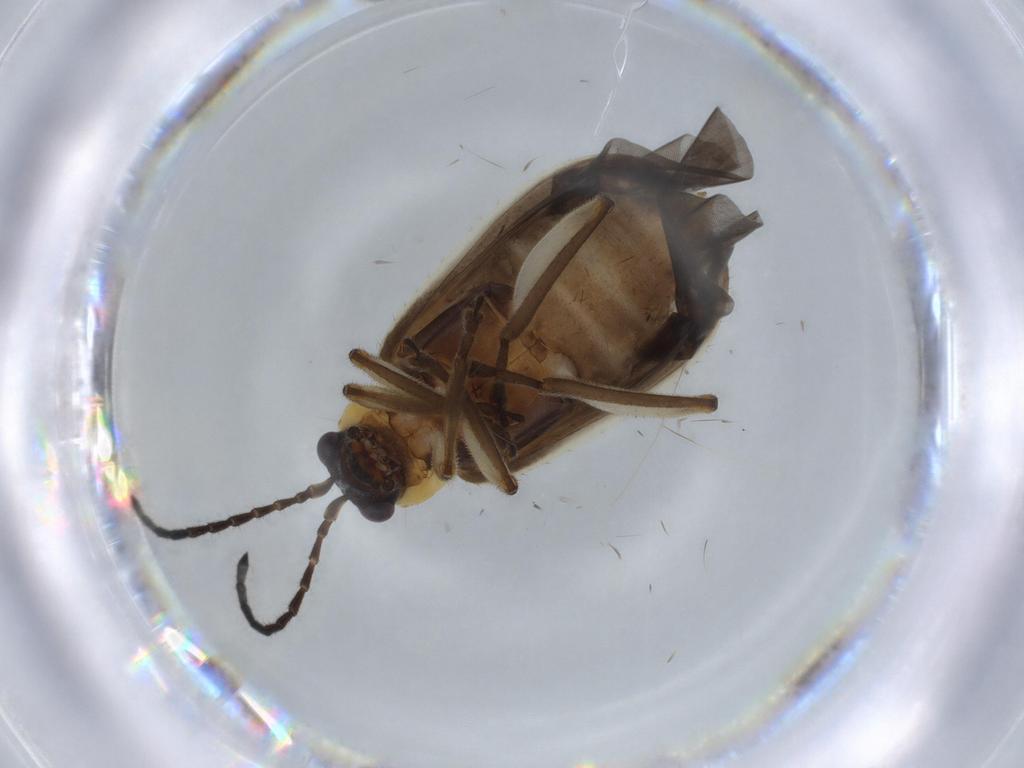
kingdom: Animalia
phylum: Arthropoda
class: Insecta
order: Coleoptera
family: Chrysomelidae
